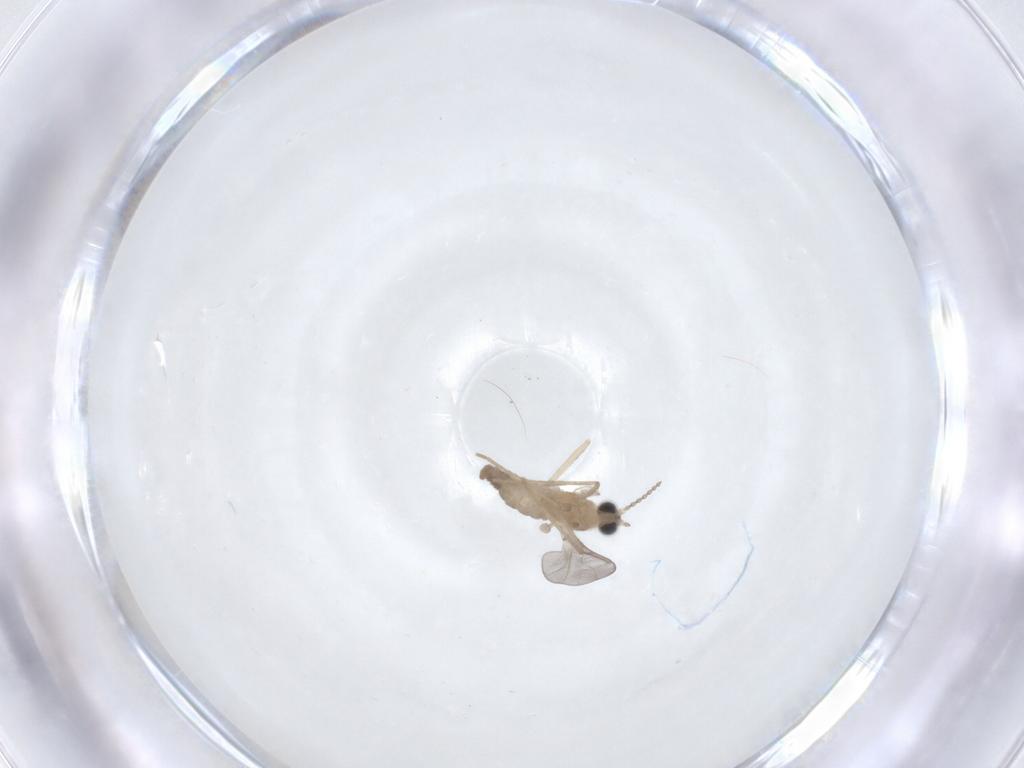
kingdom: Animalia
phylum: Arthropoda
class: Insecta
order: Diptera
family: Cecidomyiidae
